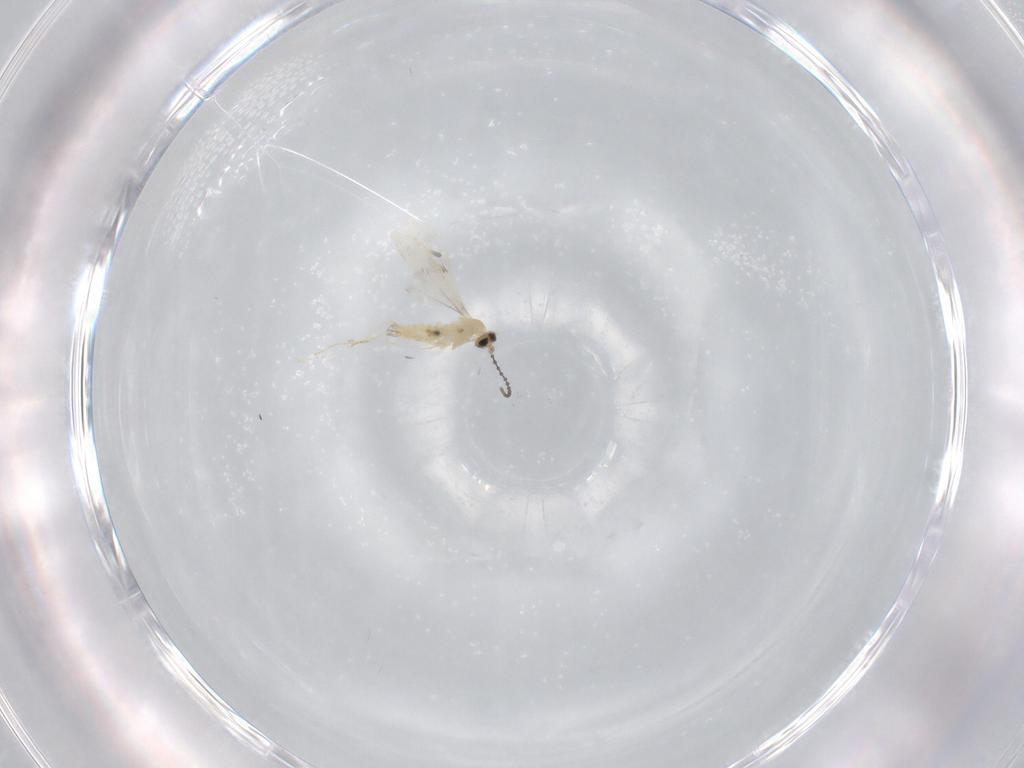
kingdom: Animalia
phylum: Arthropoda
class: Insecta
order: Diptera
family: Cecidomyiidae
